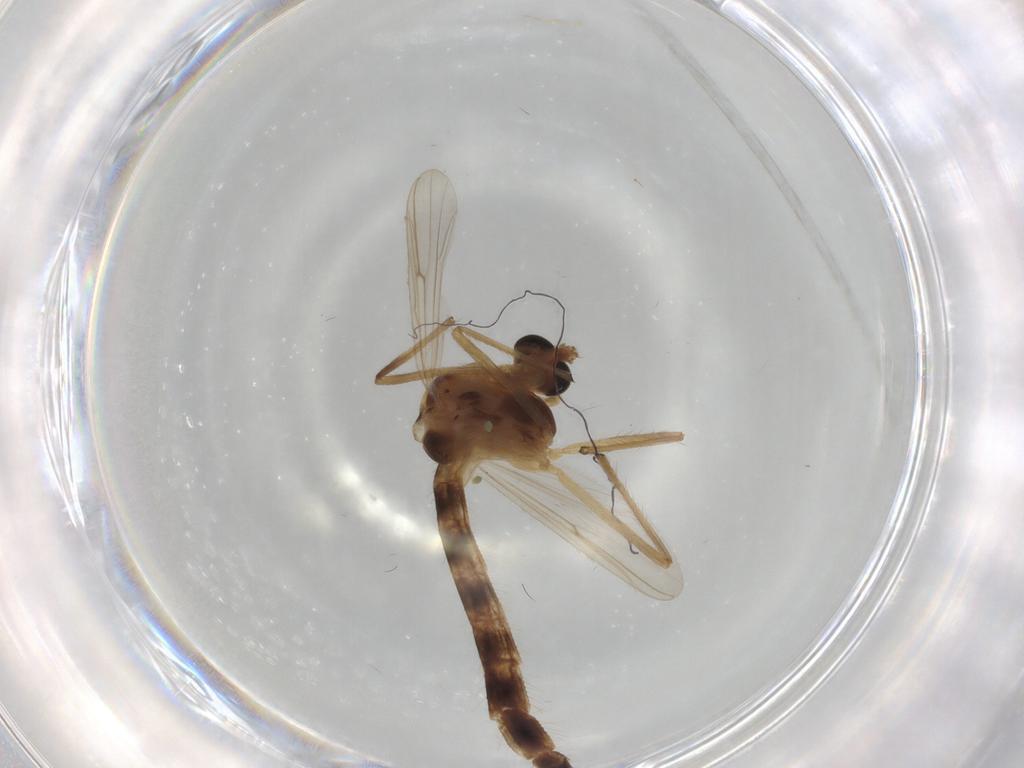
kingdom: Animalia
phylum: Arthropoda
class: Insecta
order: Diptera
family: Chironomidae
